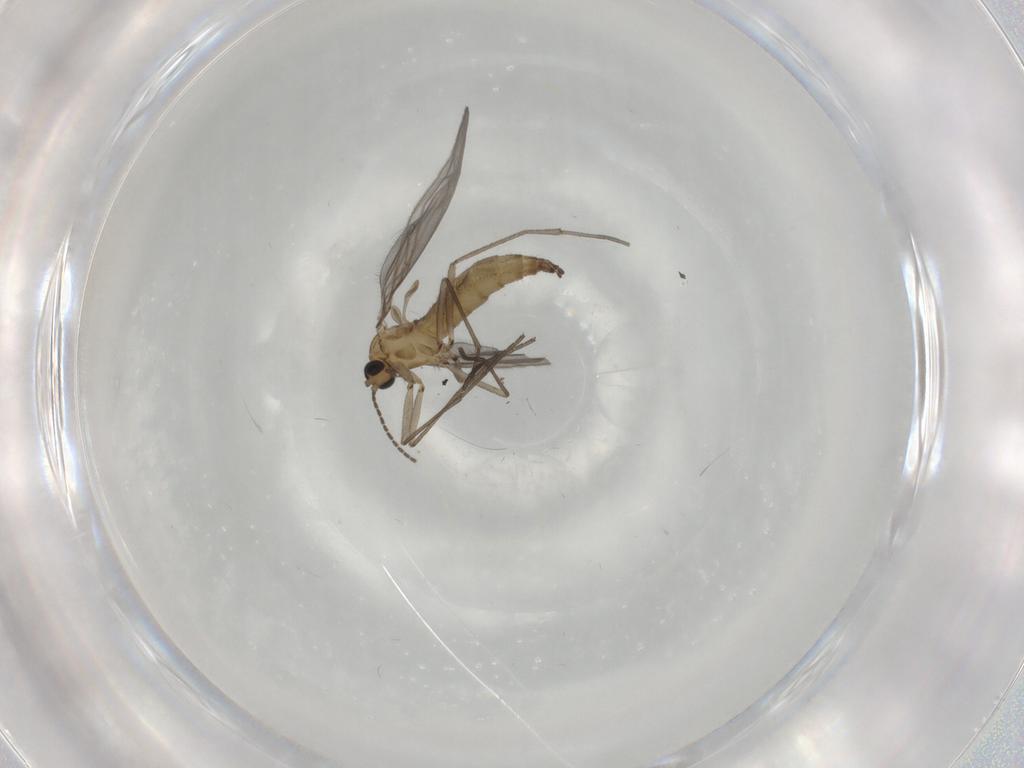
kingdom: Animalia
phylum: Arthropoda
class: Insecta
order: Diptera
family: Sciaridae
